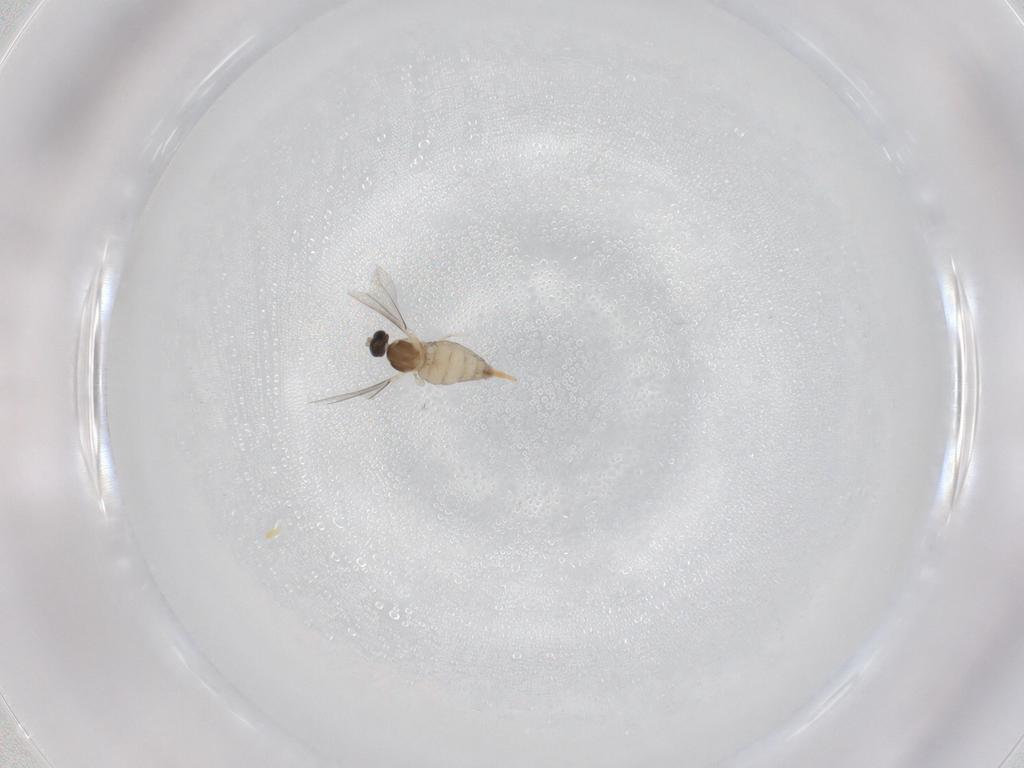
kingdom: Animalia
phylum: Arthropoda
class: Insecta
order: Diptera
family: Cecidomyiidae
